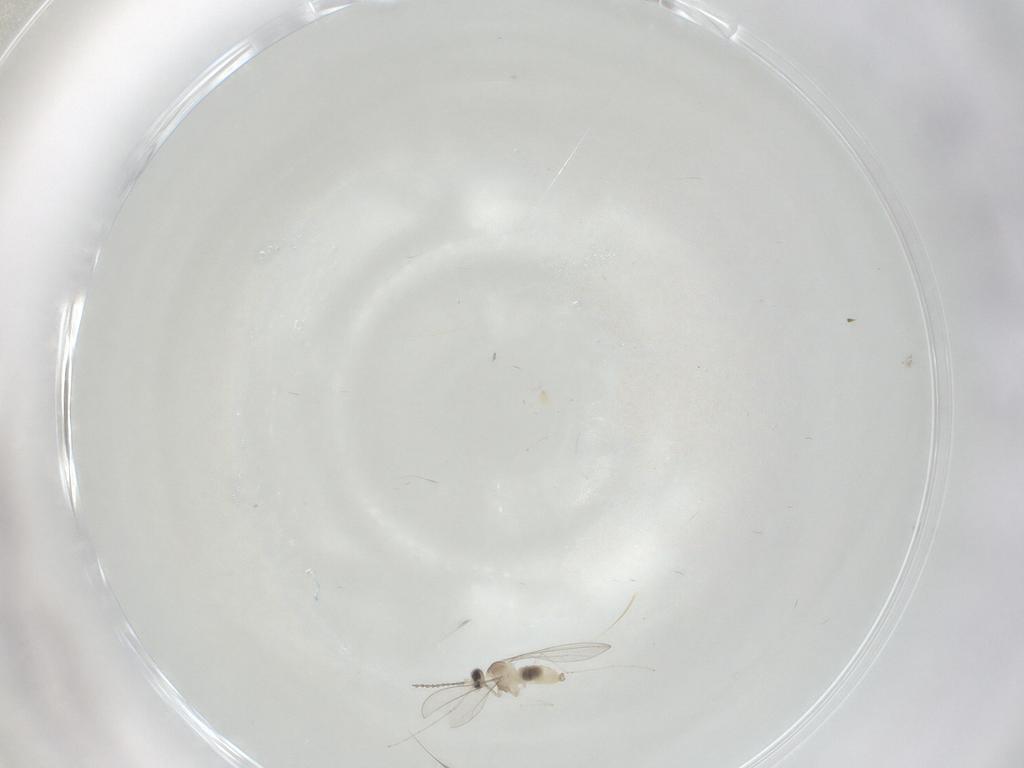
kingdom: Animalia
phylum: Arthropoda
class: Insecta
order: Diptera
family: Cecidomyiidae
